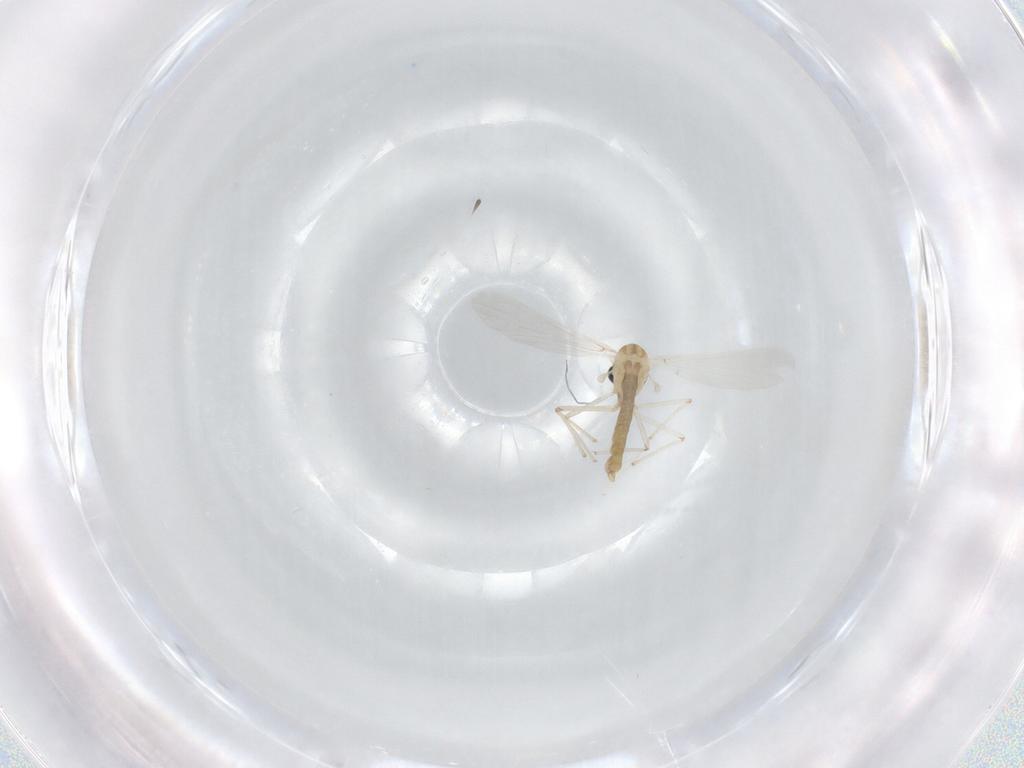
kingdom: Animalia
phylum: Arthropoda
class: Insecta
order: Diptera
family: Chironomidae
